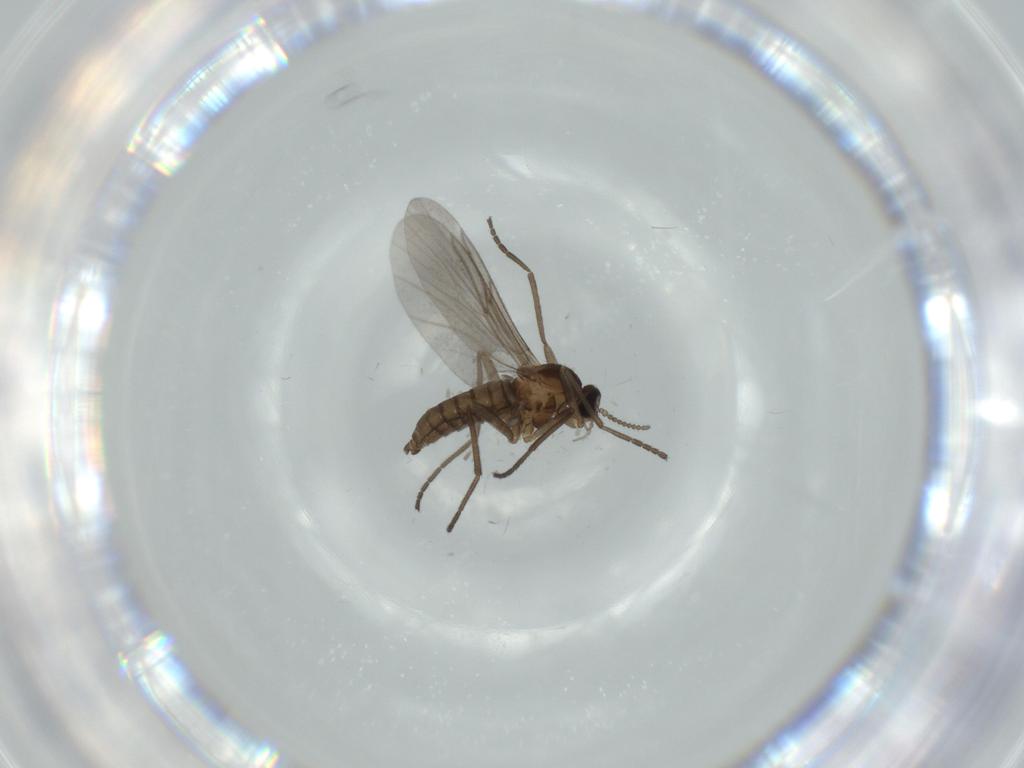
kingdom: Animalia
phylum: Arthropoda
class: Insecta
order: Diptera
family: Cecidomyiidae
